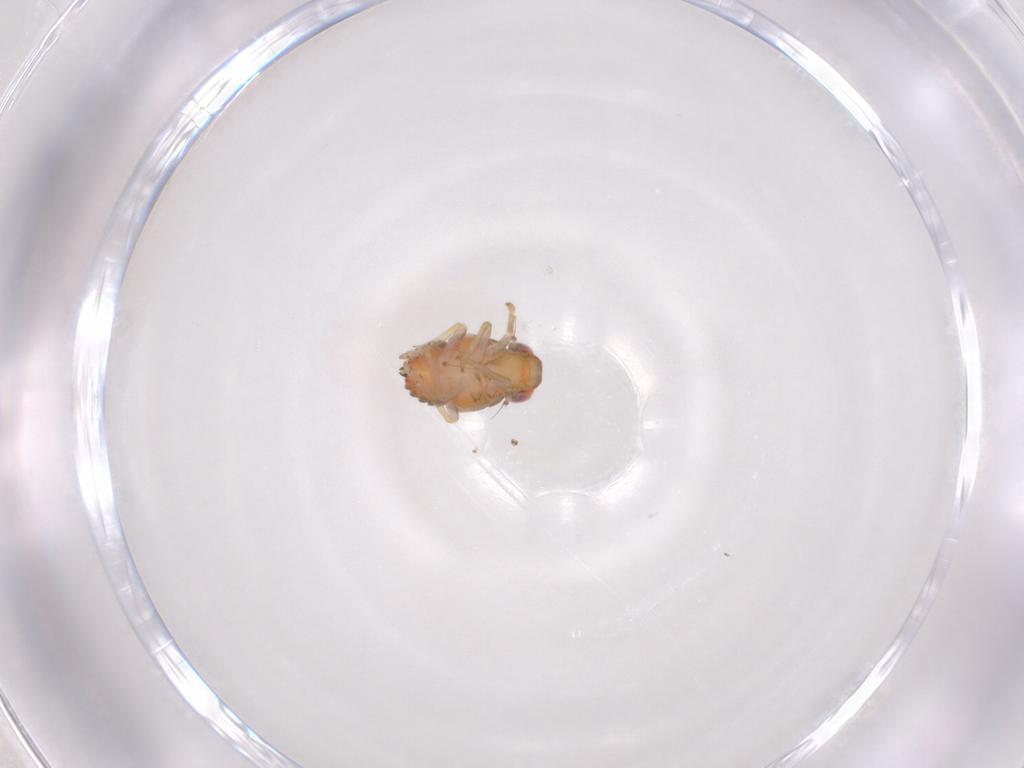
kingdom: Animalia
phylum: Arthropoda
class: Insecta
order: Hemiptera
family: Issidae
